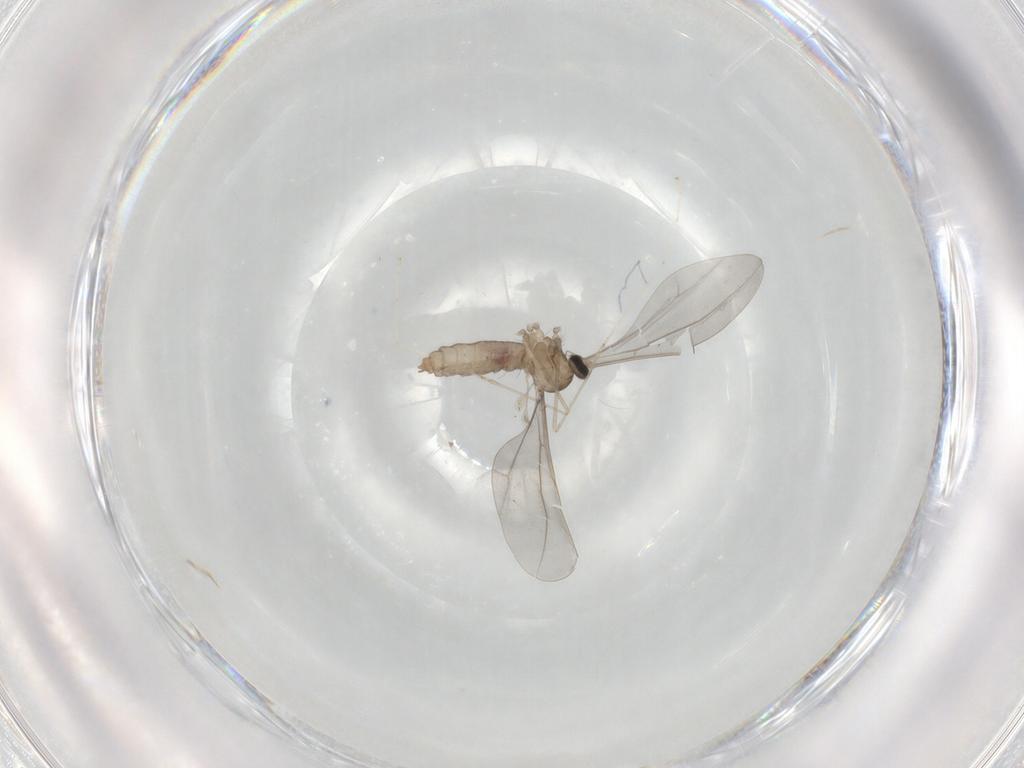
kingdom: Animalia
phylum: Arthropoda
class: Insecta
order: Diptera
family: Cecidomyiidae
